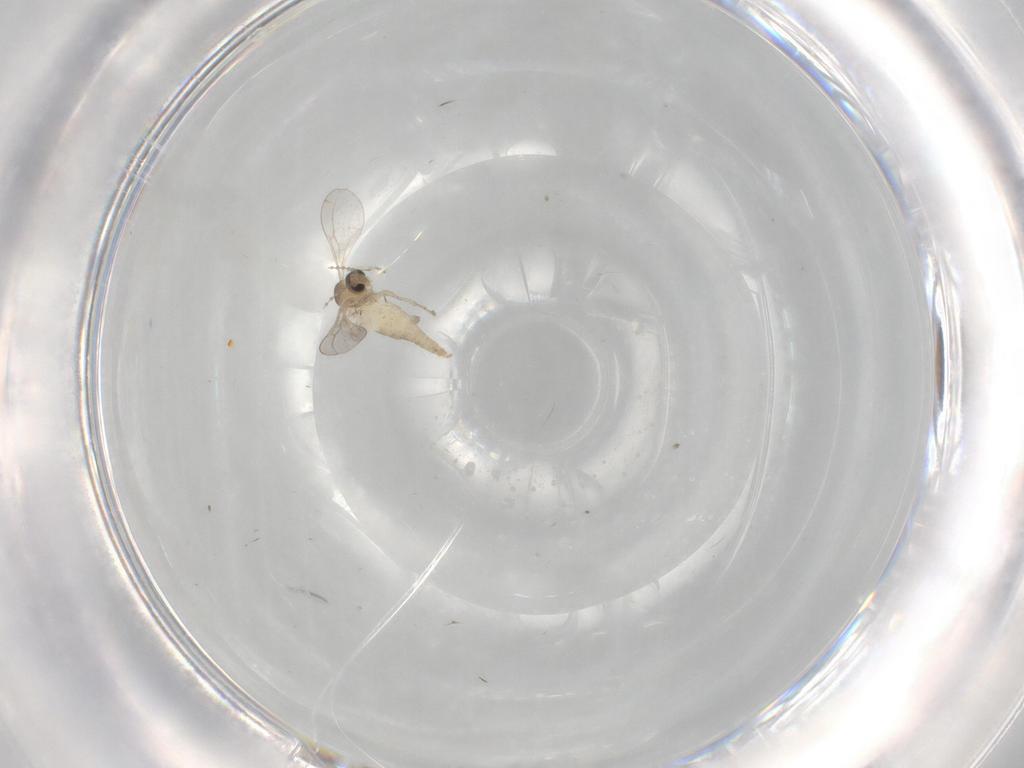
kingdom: Animalia
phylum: Arthropoda
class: Insecta
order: Diptera
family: Cecidomyiidae
